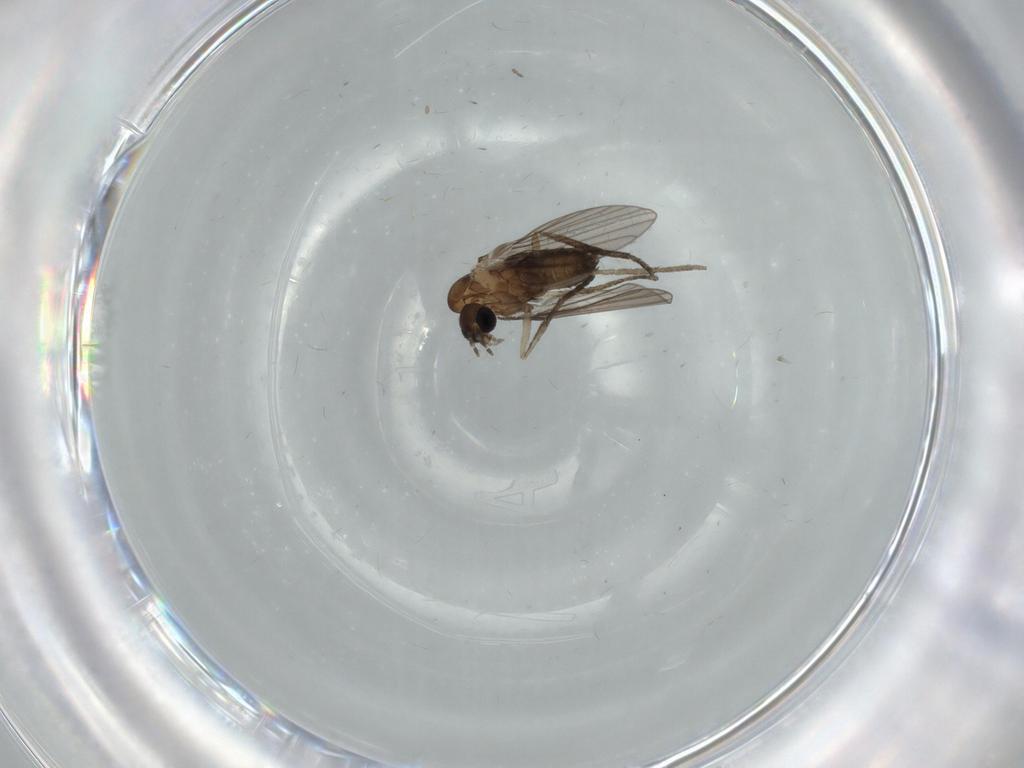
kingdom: Animalia
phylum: Arthropoda
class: Insecta
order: Diptera
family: Psychodidae
